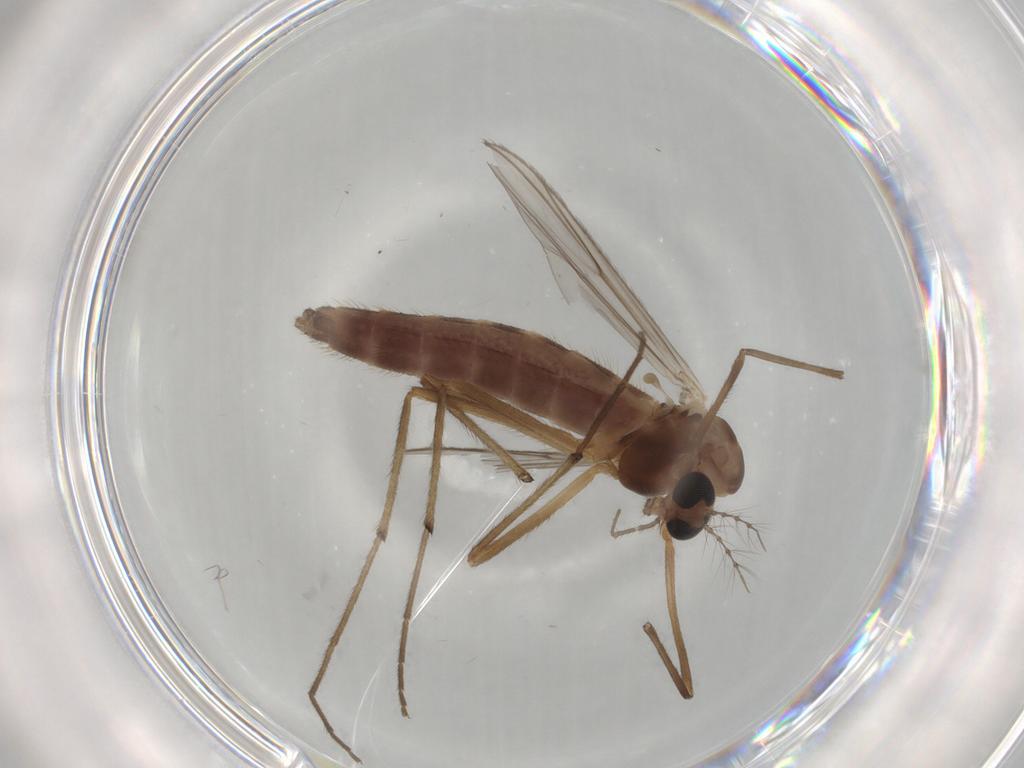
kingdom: Animalia
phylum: Arthropoda
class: Insecta
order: Diptera
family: Chironomidae
